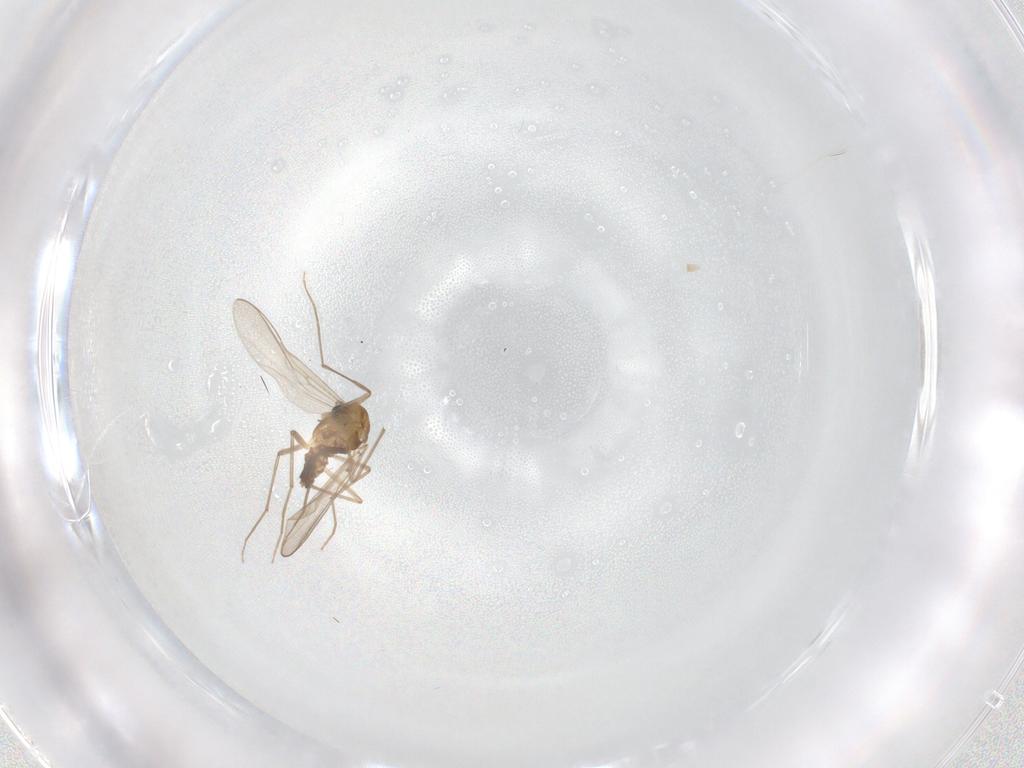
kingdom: Animalia
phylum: Arthropoda
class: Insecta
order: Diptera
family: Chironomidae
